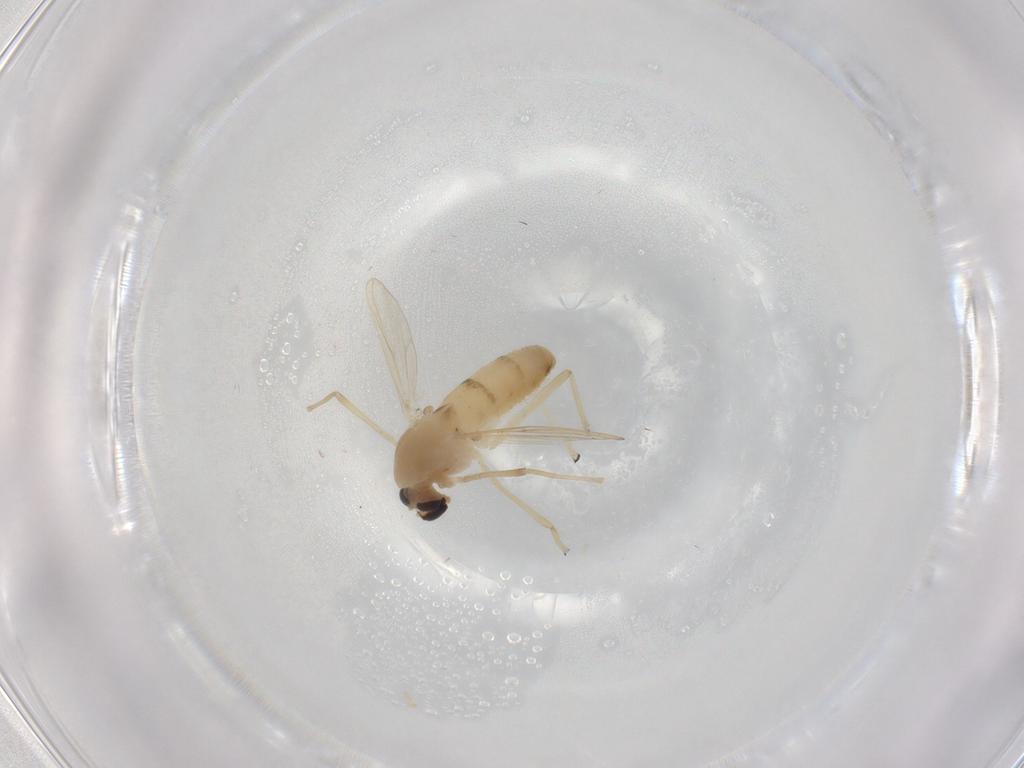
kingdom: Animalia
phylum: Arthropoda
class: Insecta
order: Diptera
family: Chironomidae
